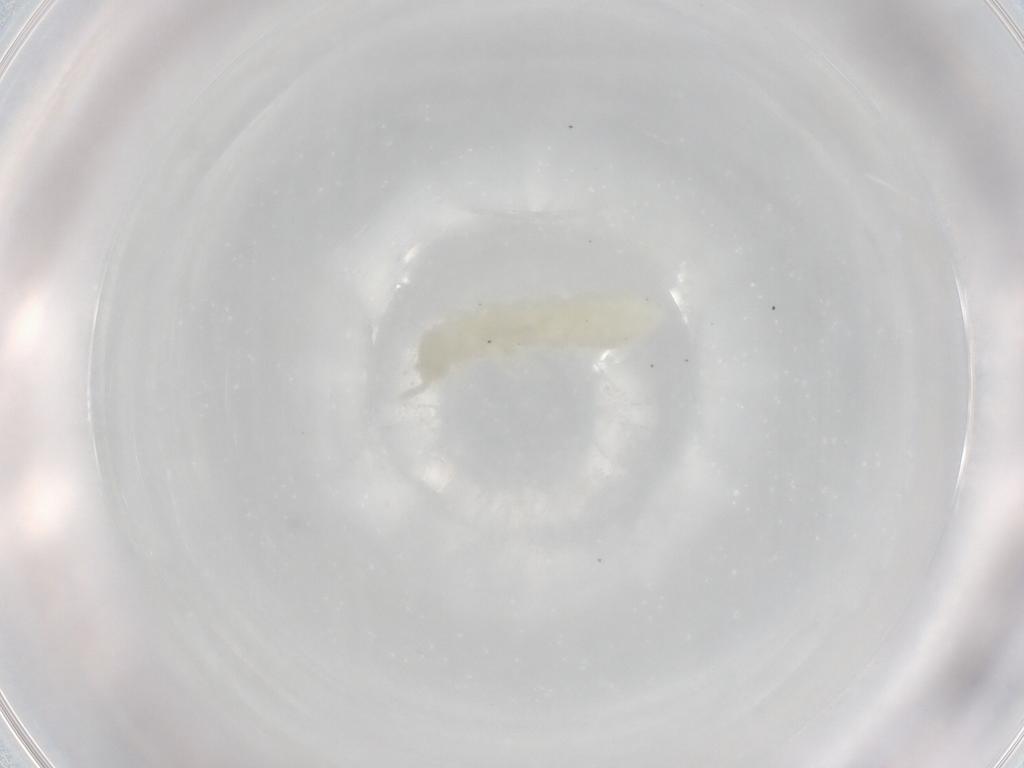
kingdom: Animalia
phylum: Arthropoda
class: Collembola
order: Poduromorpha
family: Onychiuridae
